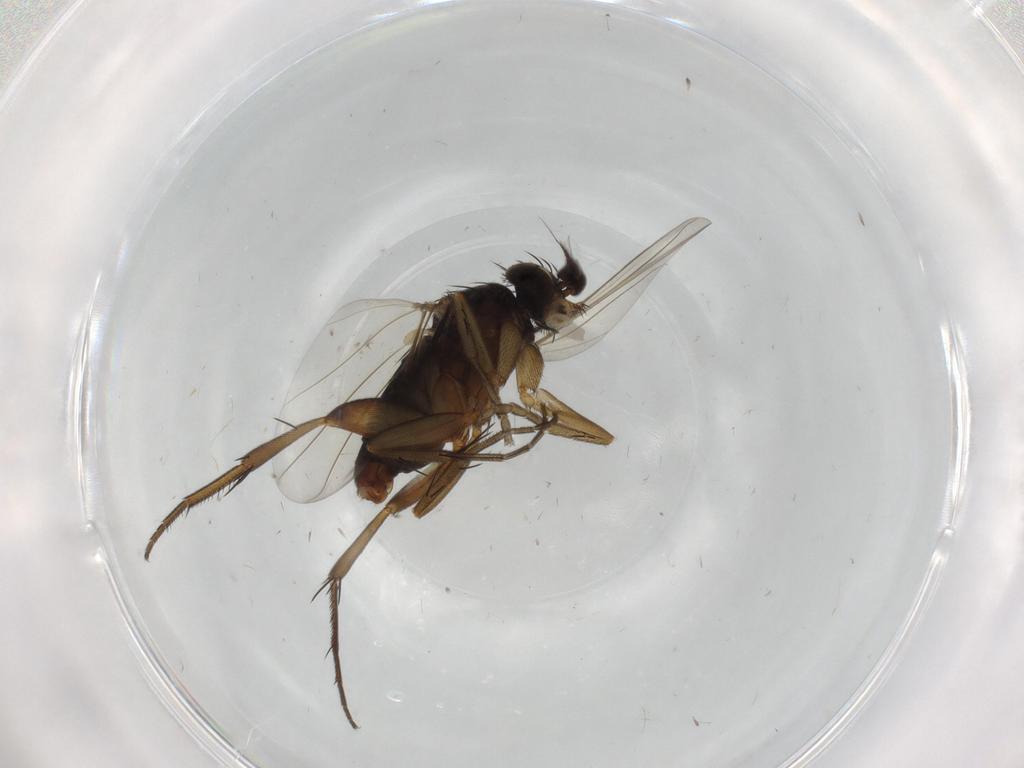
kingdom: Animalia
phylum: Arthropoda
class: Insecta
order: Diptera
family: Phoridae
